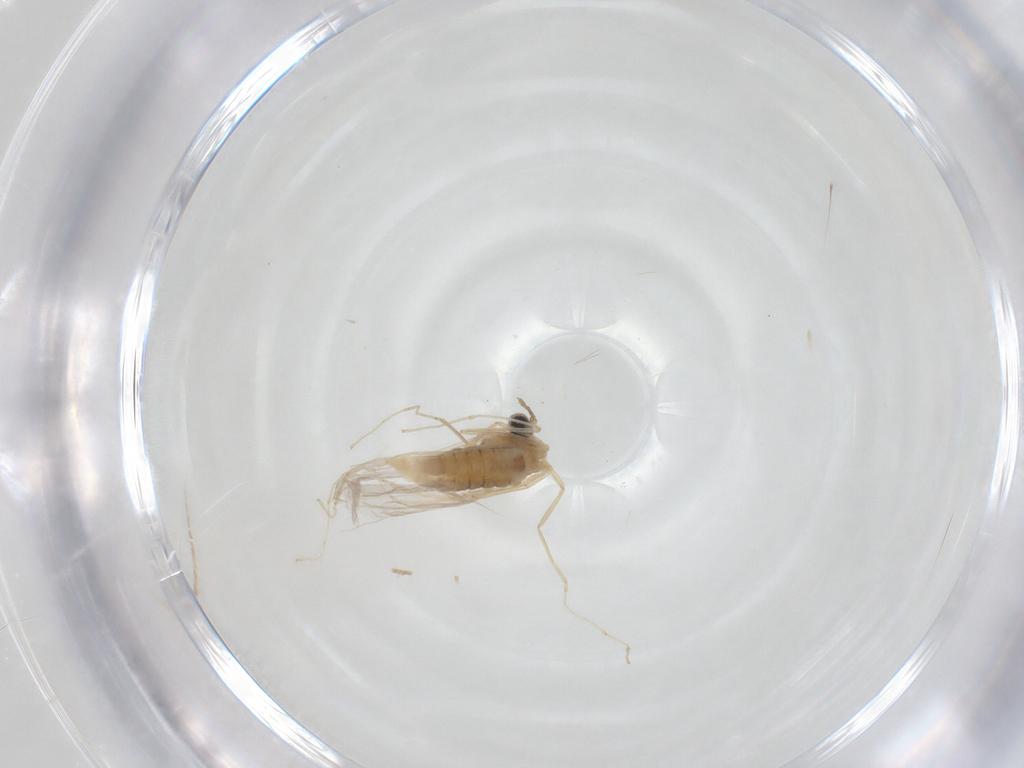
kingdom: Animalia
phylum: Arthropoda
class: Insecta
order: Diptera
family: Cecidomyiidae
